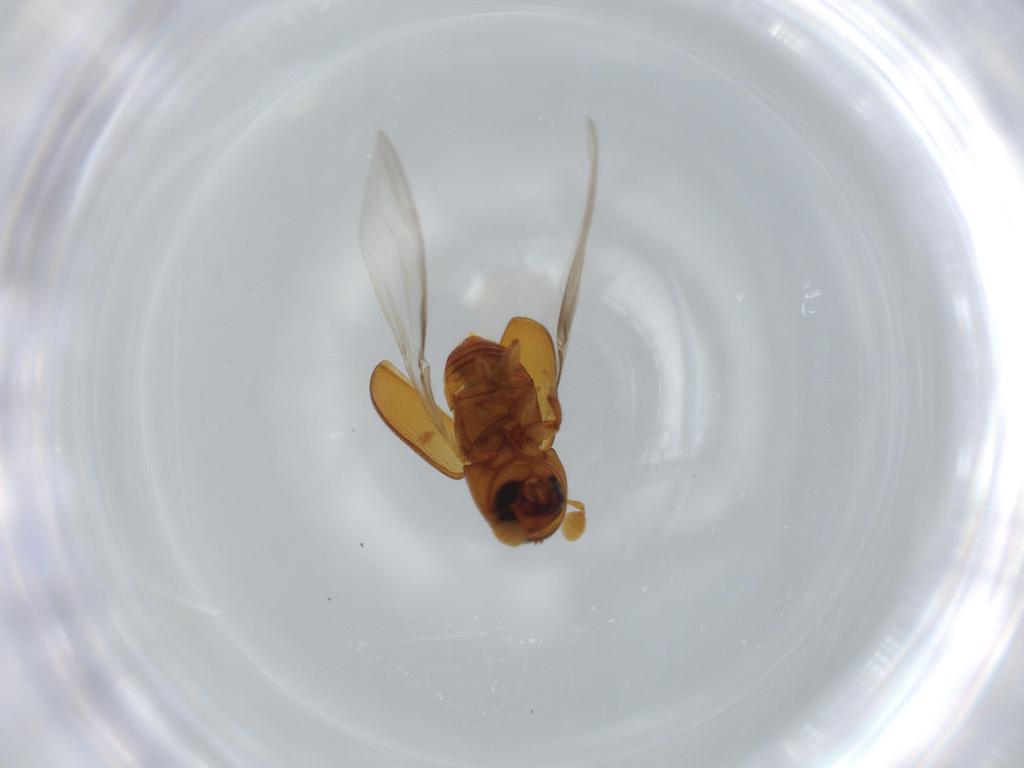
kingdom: Animalia
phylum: Arthropoda
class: Insecta
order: Coleoptera
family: Curculionidae
